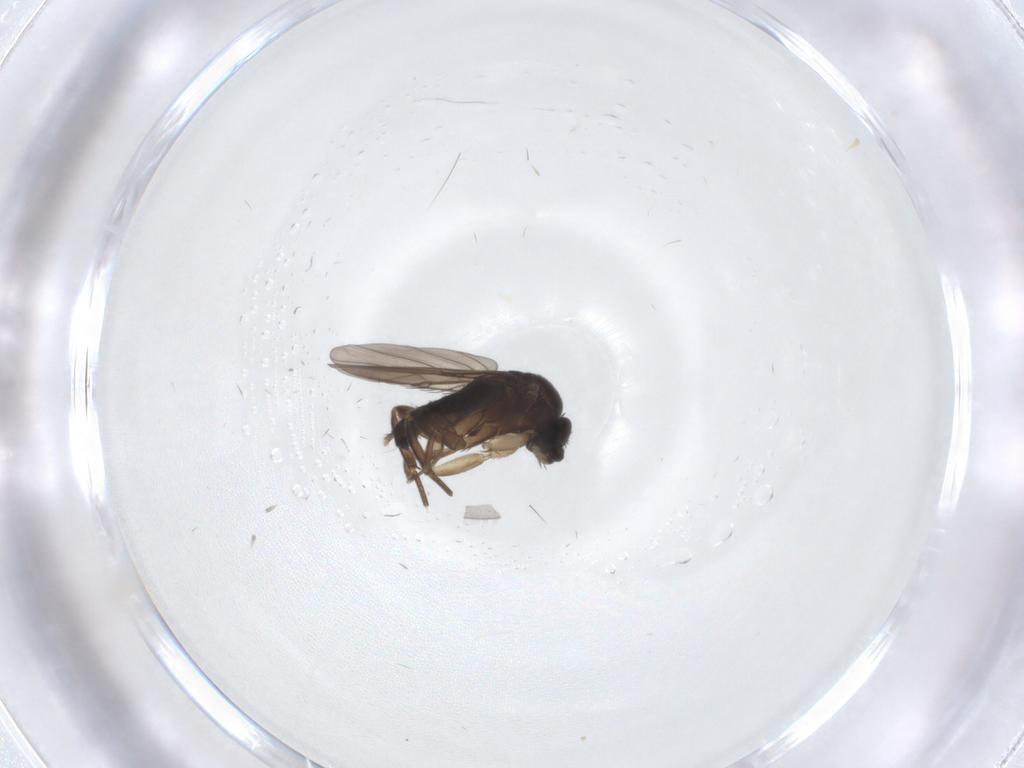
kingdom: Animalia
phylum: Arthropoda
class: Insecta
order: Diptera
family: Phoridae
